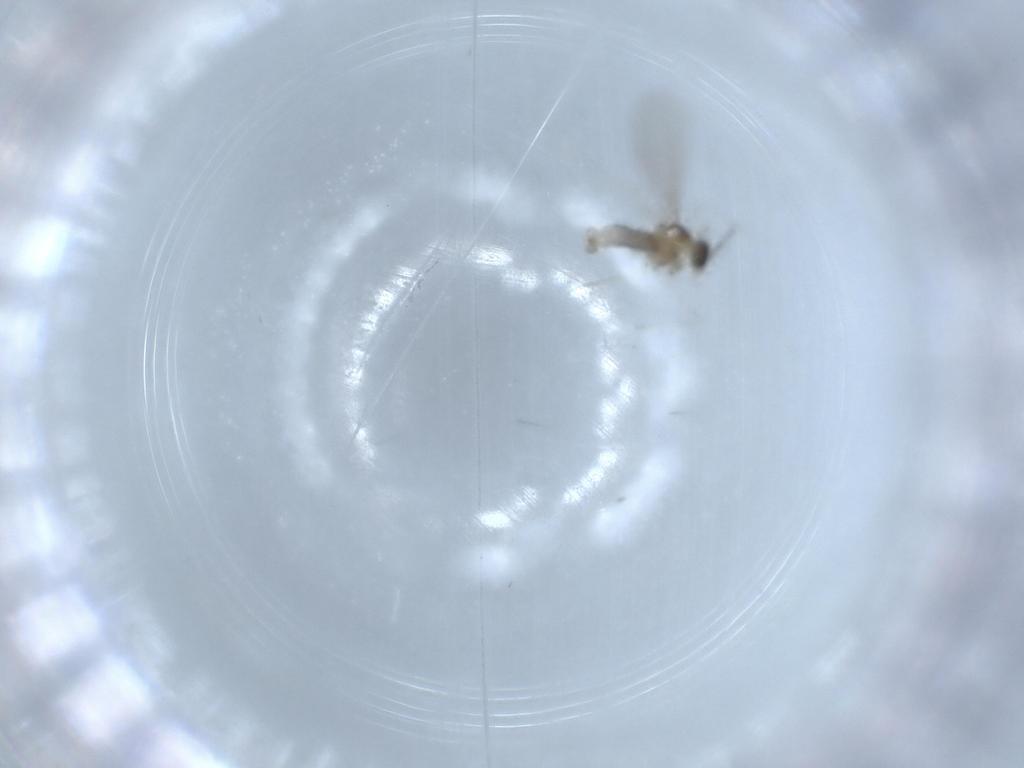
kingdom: Animalia
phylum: Arthropoda
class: Insecta
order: Diptera
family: Cecidomyiidae
